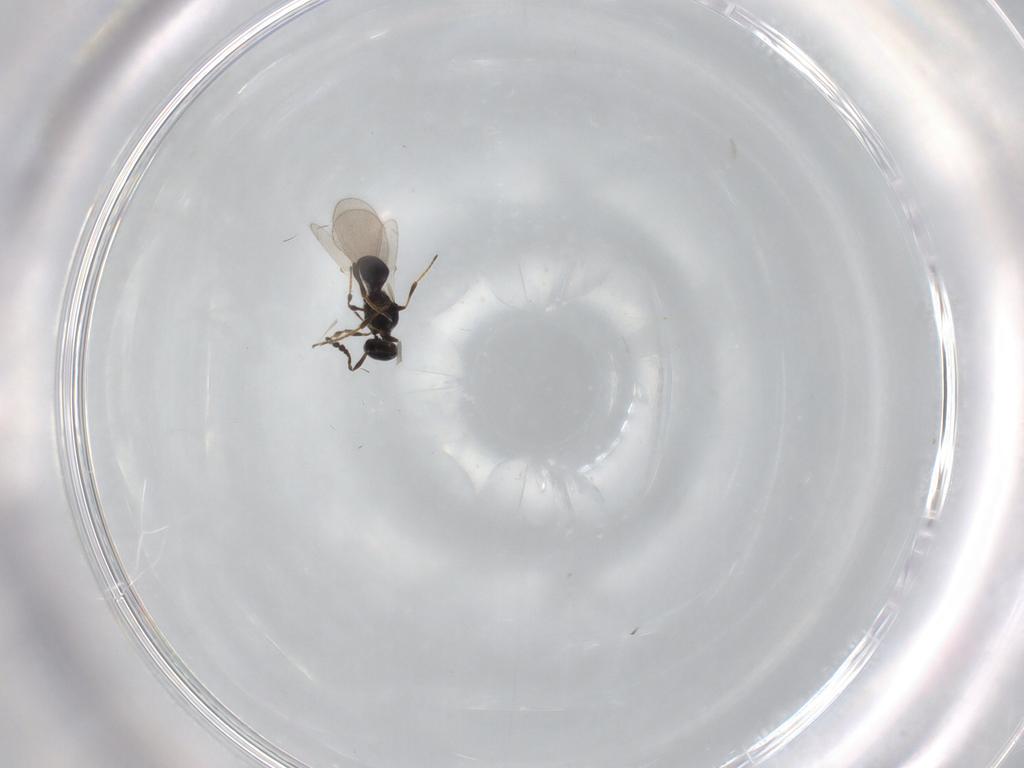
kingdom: Animalia
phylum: Arthropoda
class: Insecta
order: Hymenoptera
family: Platygastridae
